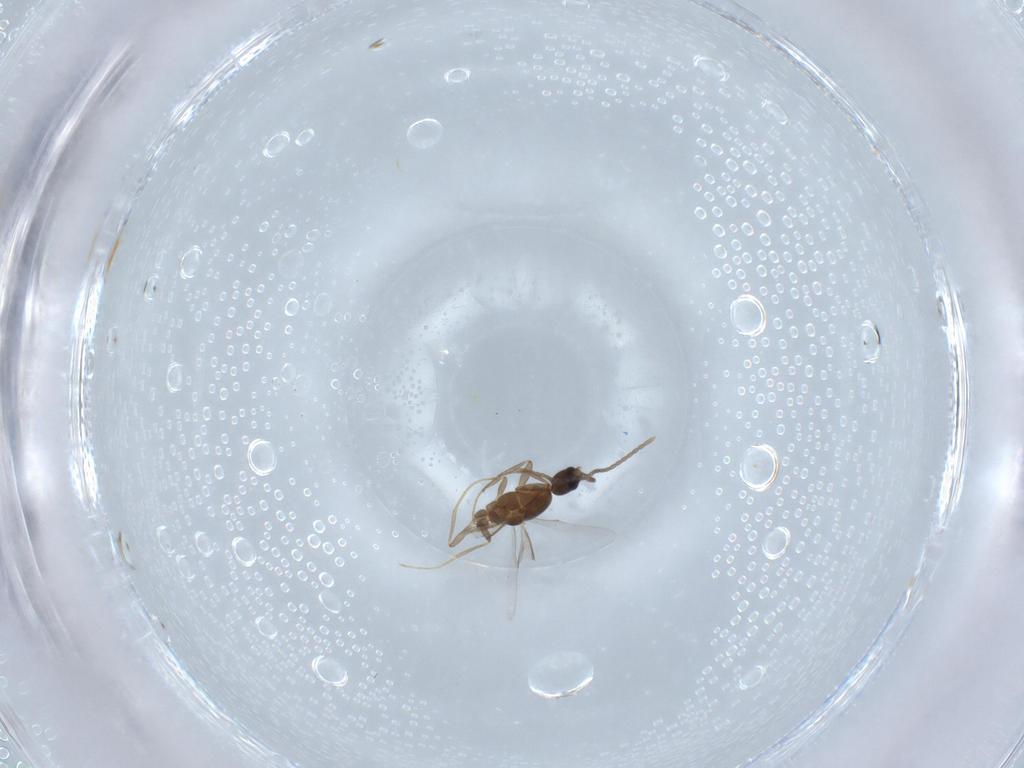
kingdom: Animalia
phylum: Arthropoda
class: Insecta
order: Hymenoptera
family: Formicidae
